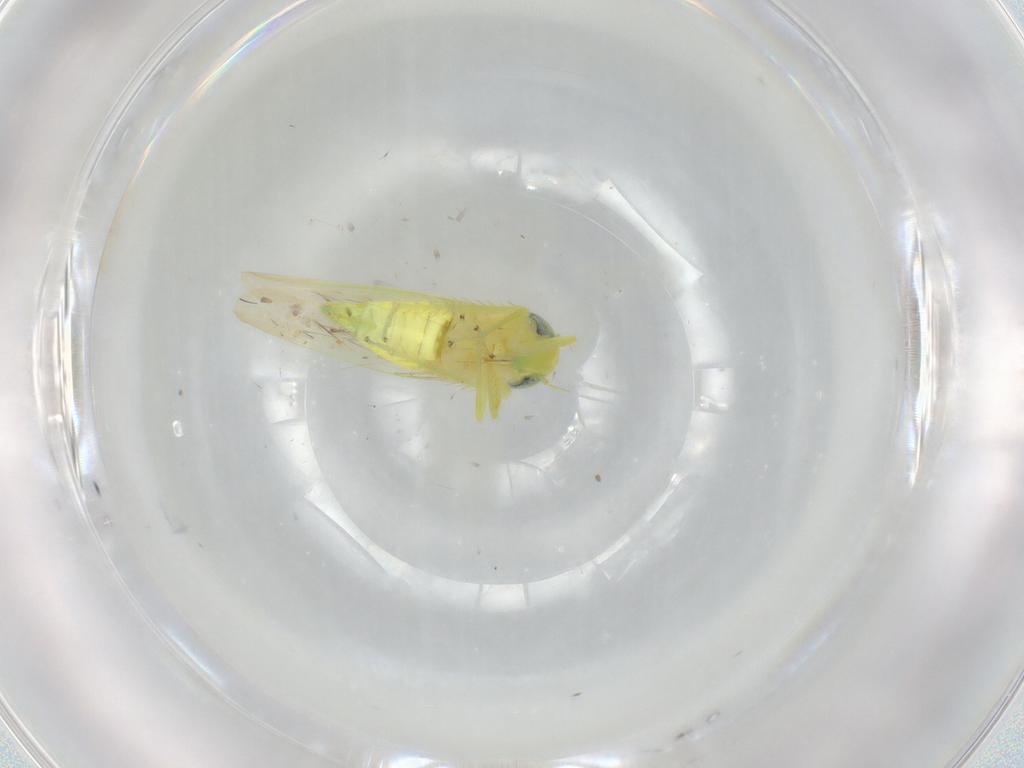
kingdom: Animalia
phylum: Arthropoda
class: Insecta
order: Hemiptera
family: Cicadellidae
